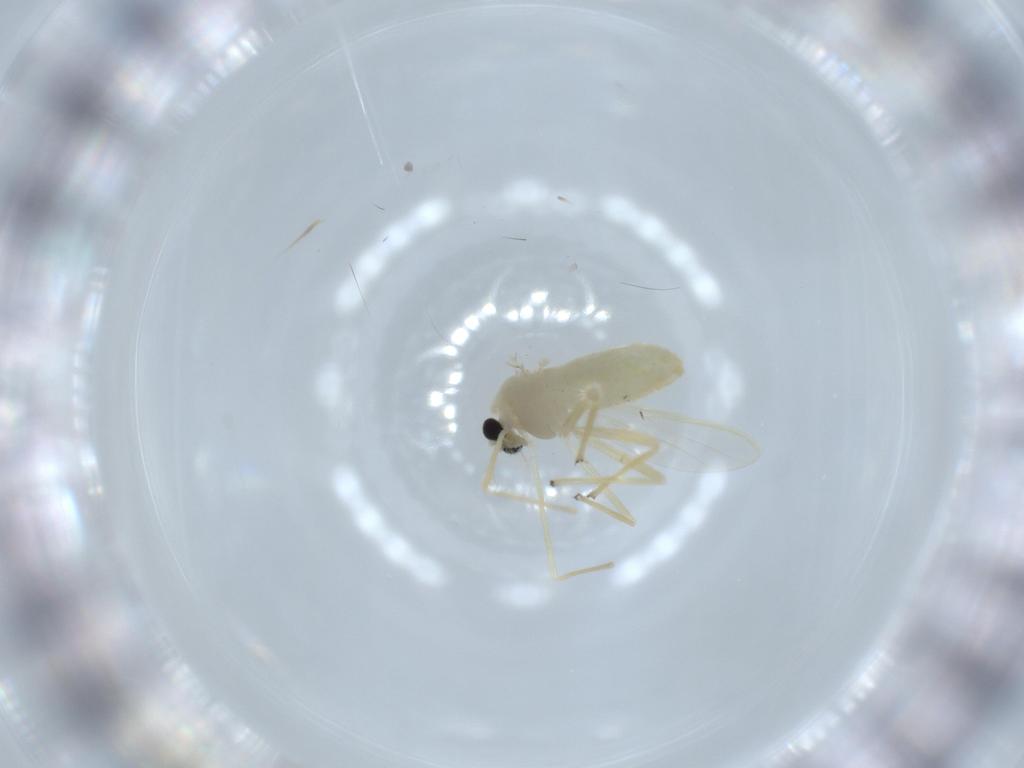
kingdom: Animalia
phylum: Arthropoda
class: Insecta
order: Diptera
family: Chironomidae
